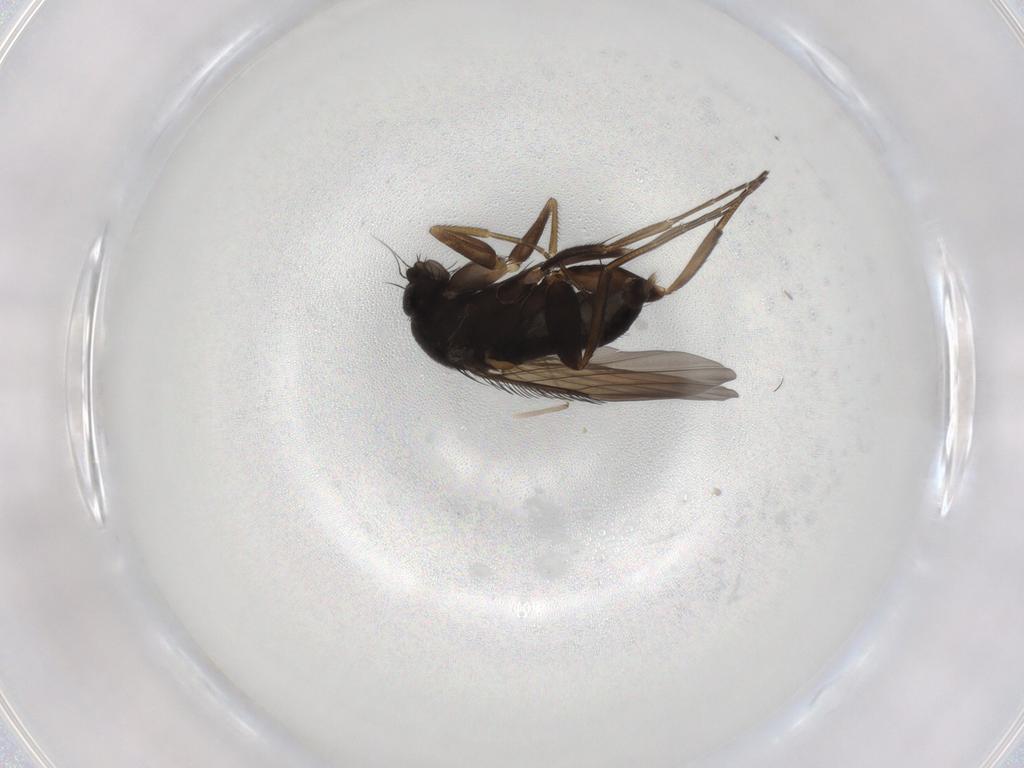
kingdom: Animalia
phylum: Arthropoda
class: Insecta
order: Diptera
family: Phoridae
